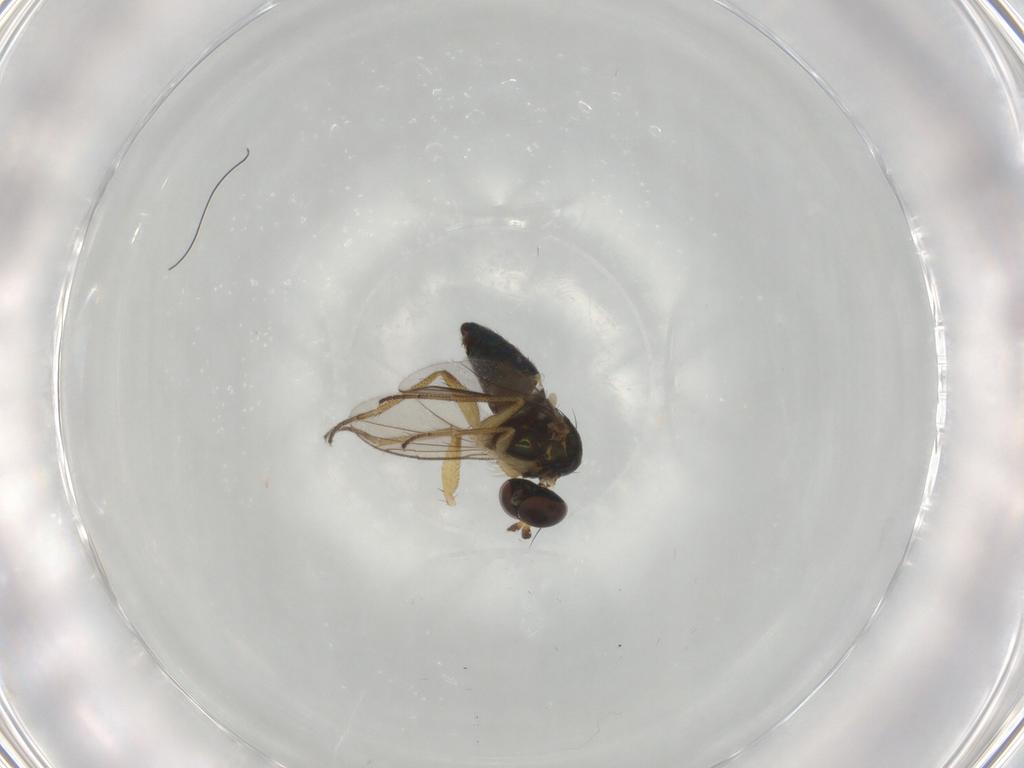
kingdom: Animalia
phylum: Arthropoda
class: Insecta
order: Diptera
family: Dolichopodidae
